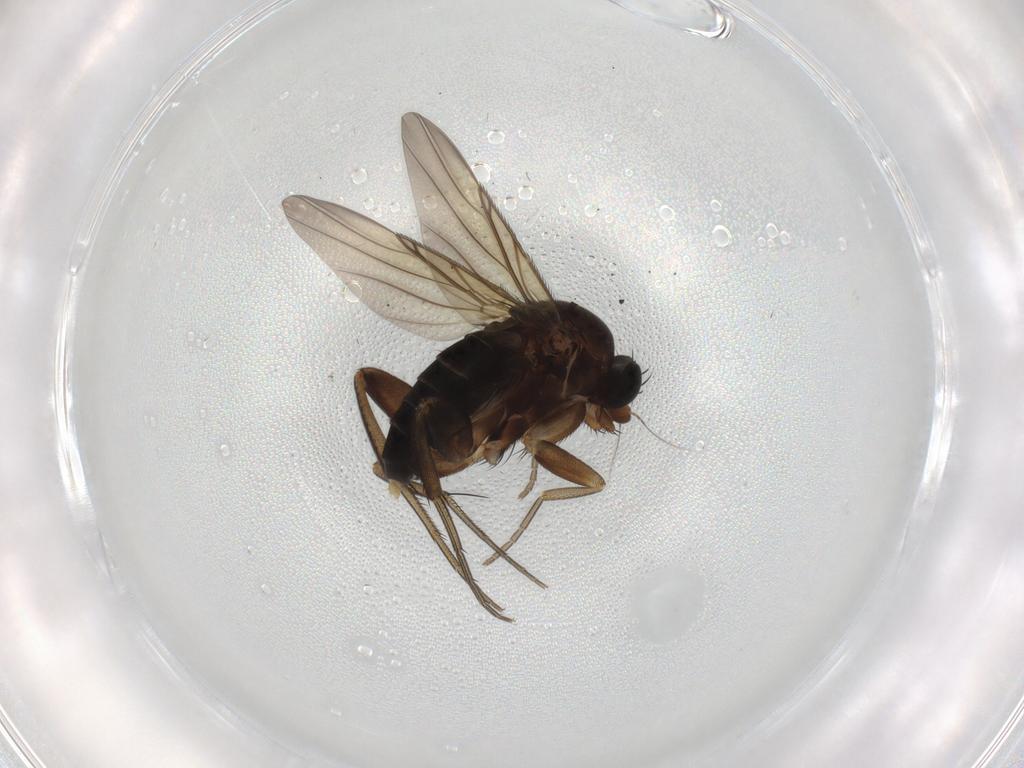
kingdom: Animalia
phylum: Arthropoda
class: Insecta
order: Diptera
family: Phoridae
